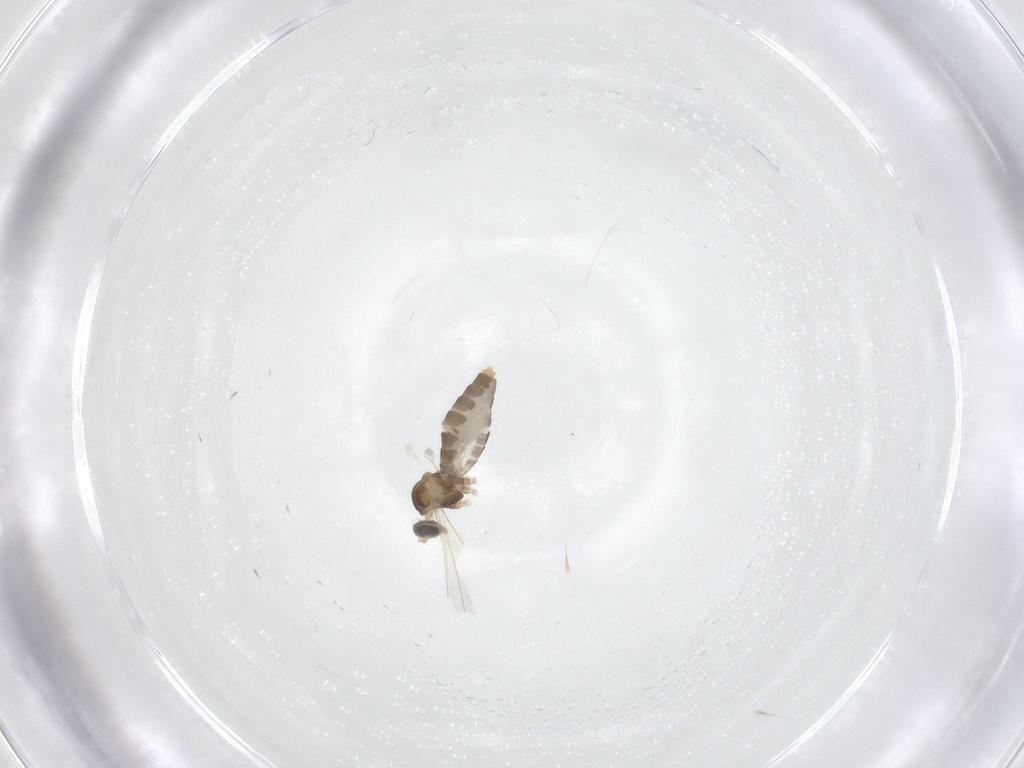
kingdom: Animalia
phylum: Arthropoda
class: Insecta
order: Diptera
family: Cecidomyiidae
